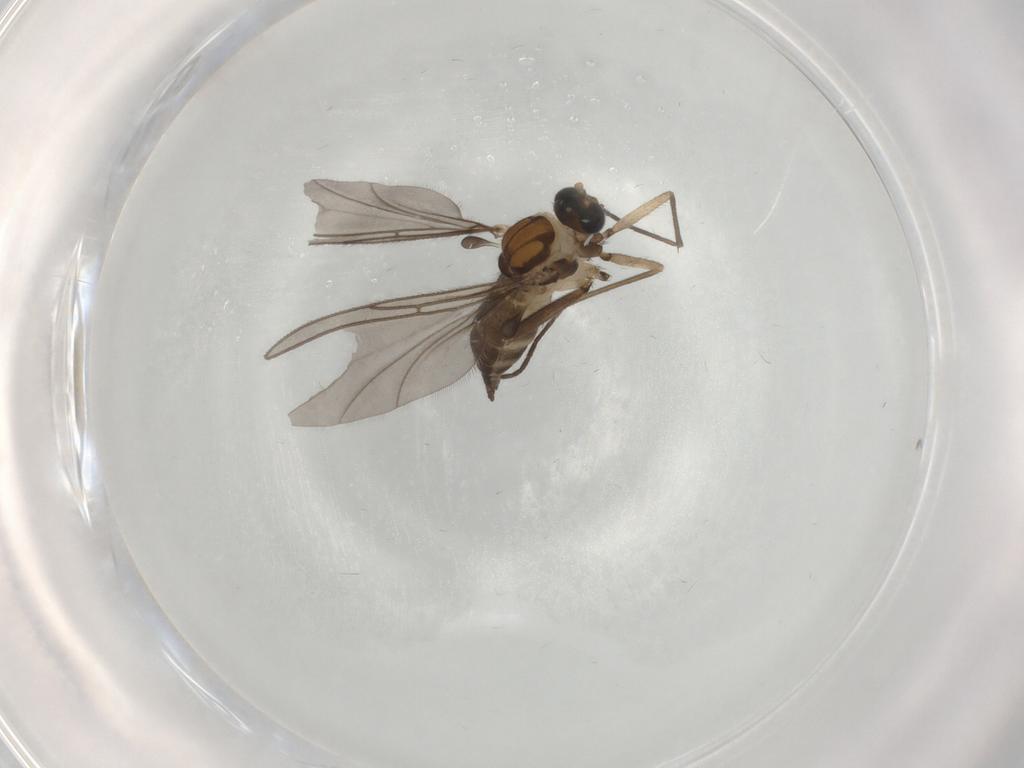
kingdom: Animalia
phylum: Arthropoda
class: Insecta
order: Diptera
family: Sciaridae
